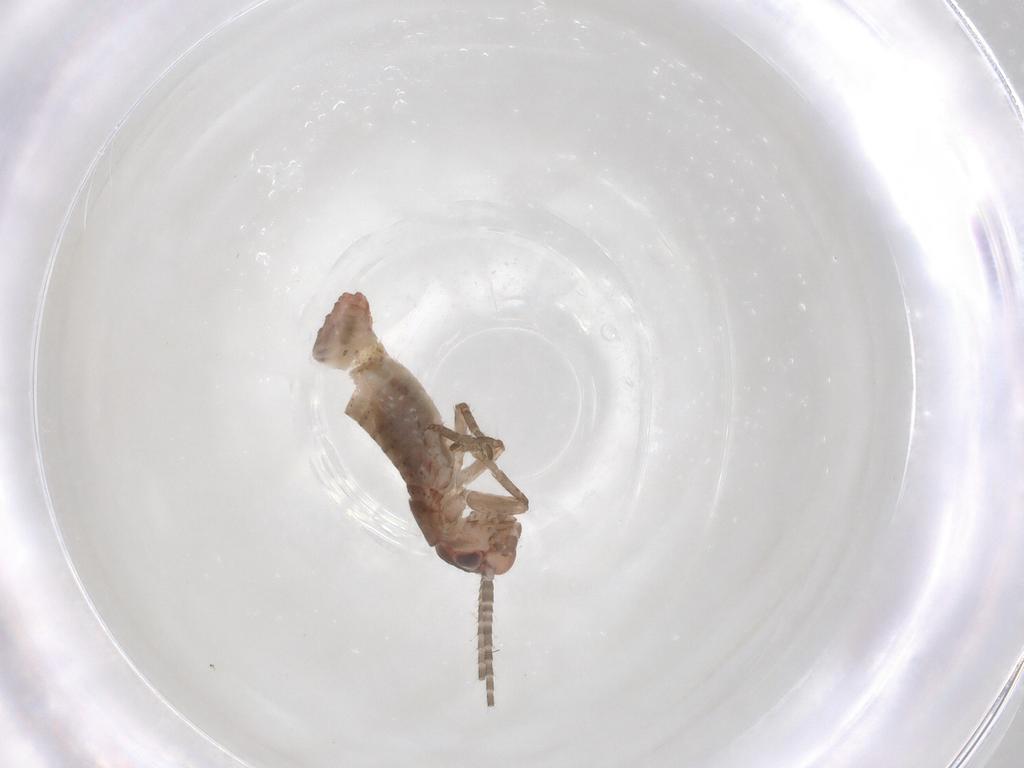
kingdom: Animalia
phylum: Arthropoda
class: Insecta
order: Orthoptera
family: Mogoplistidae
